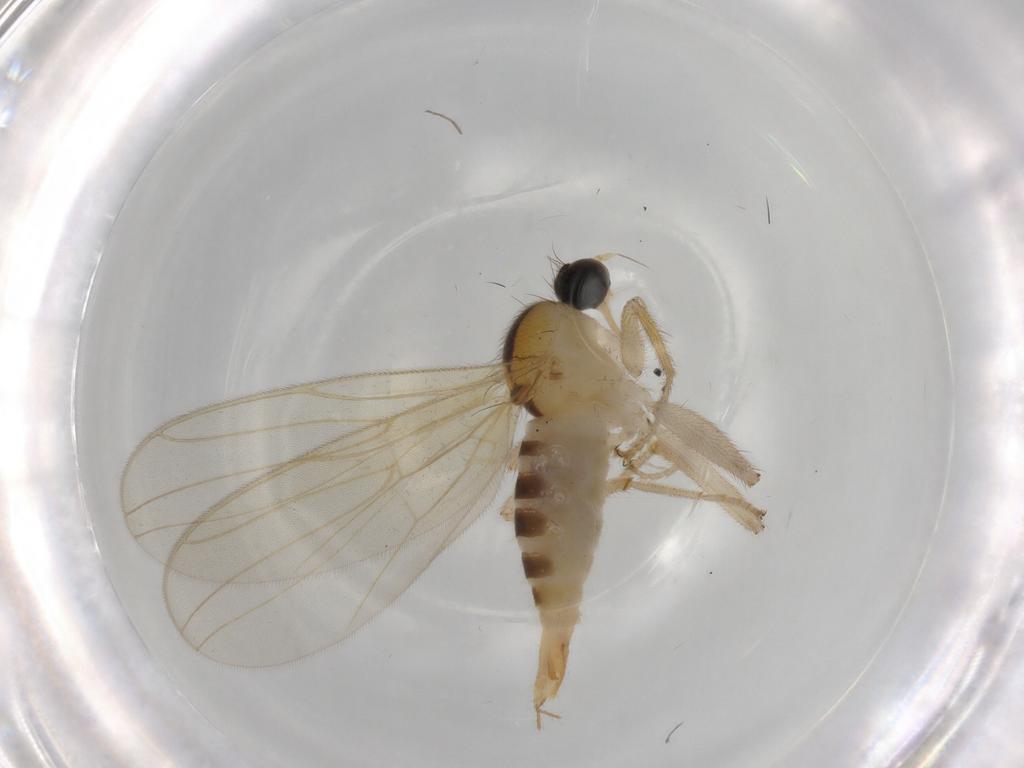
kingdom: Animalia
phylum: Arthropoda
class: Insecta
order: Diptera
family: Hybotidae
